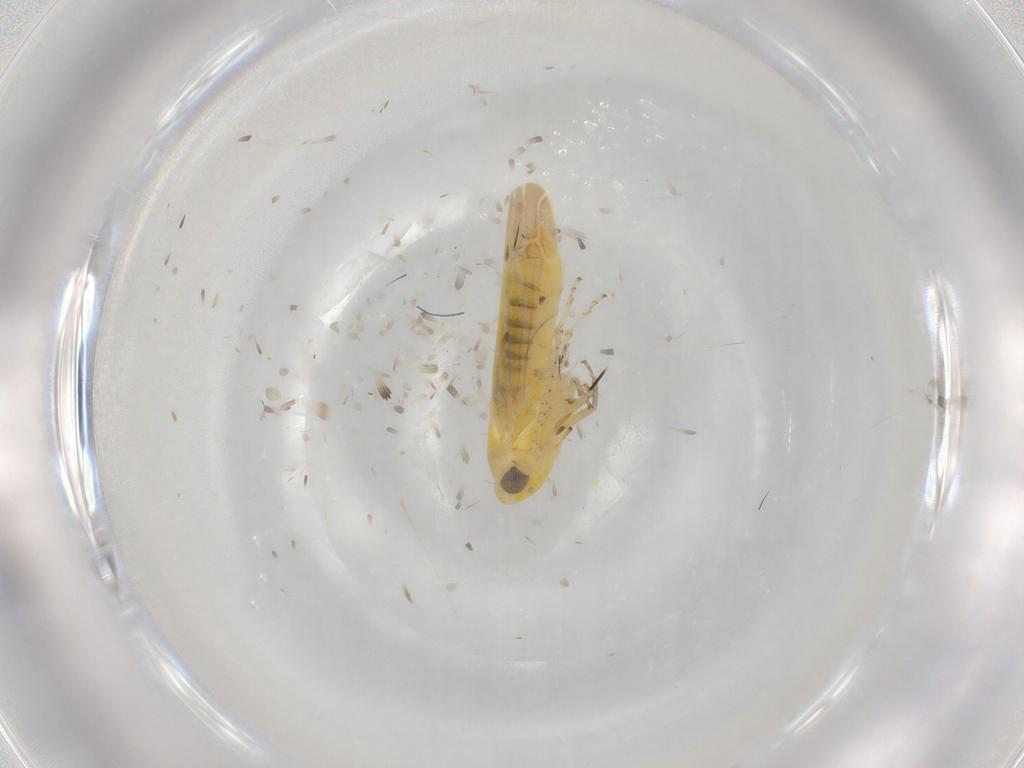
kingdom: Animalia
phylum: Arthropoda
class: Insecta
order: Hemiptera
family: Cicadellidae
